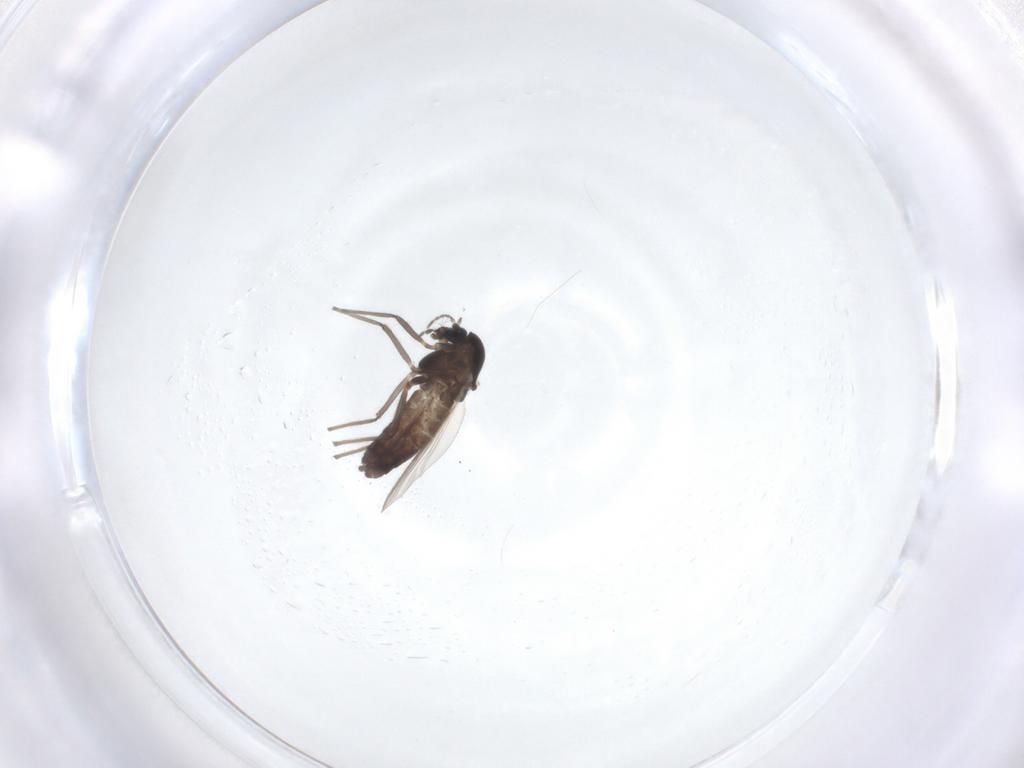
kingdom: Animalia
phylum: Arthropoda
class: Insecta
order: Diptera
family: Chironomidae
